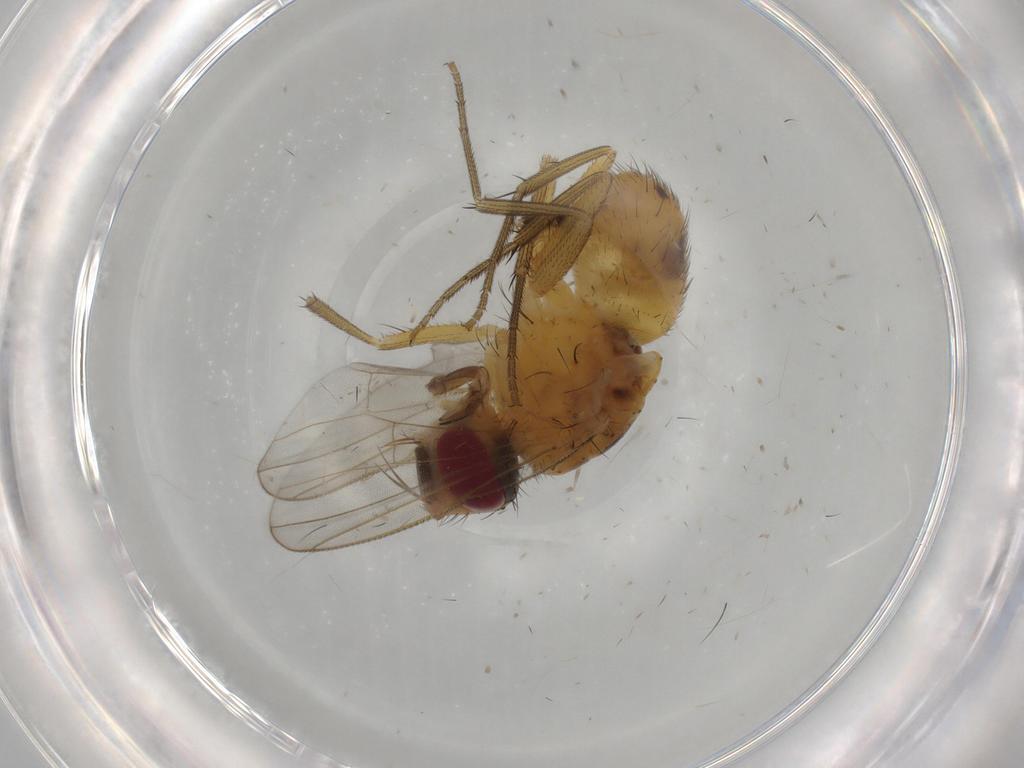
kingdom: Animalia
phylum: Arthropoda
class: Insecta
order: Diptera
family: Muscidae
